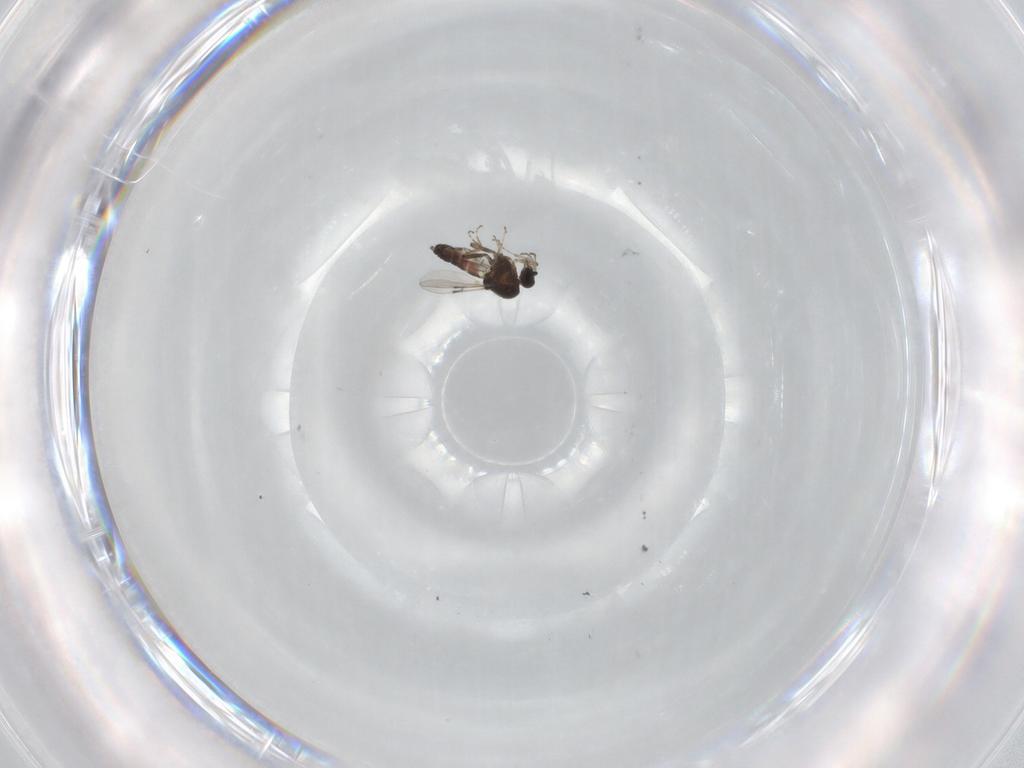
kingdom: Animalia
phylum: Arthropoda
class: Insecta
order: Diptera
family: Ceratopogonidae
